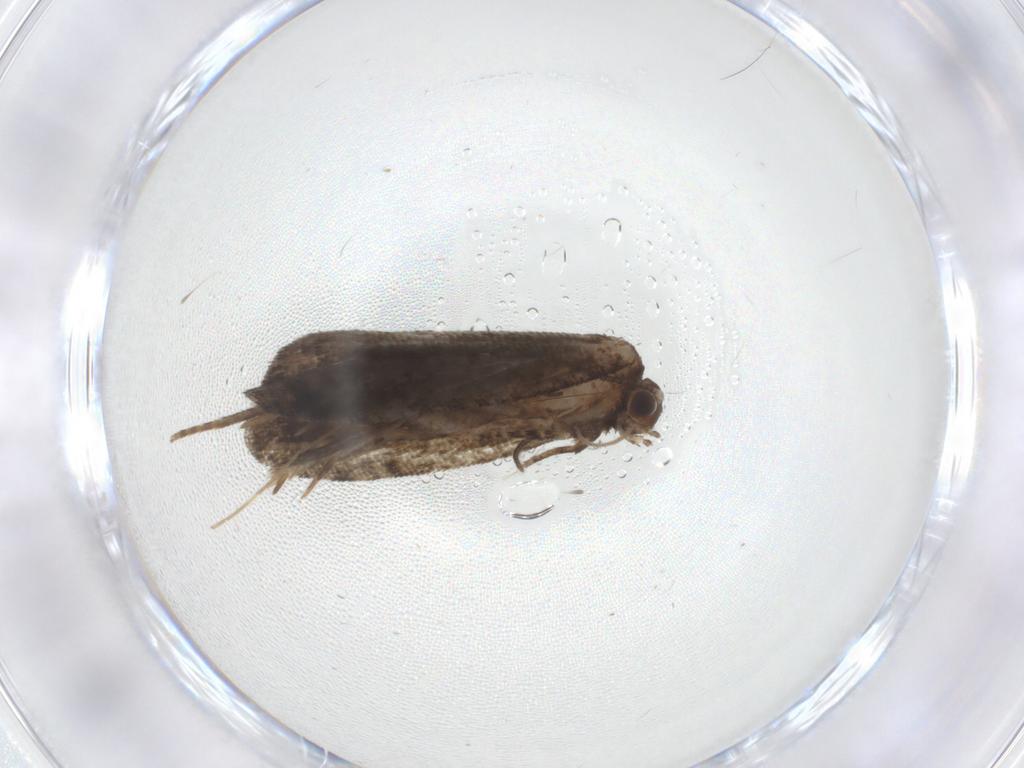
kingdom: Animalia
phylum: Arthropoda
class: Insecta
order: Lepidoptera
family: Tortricidae
